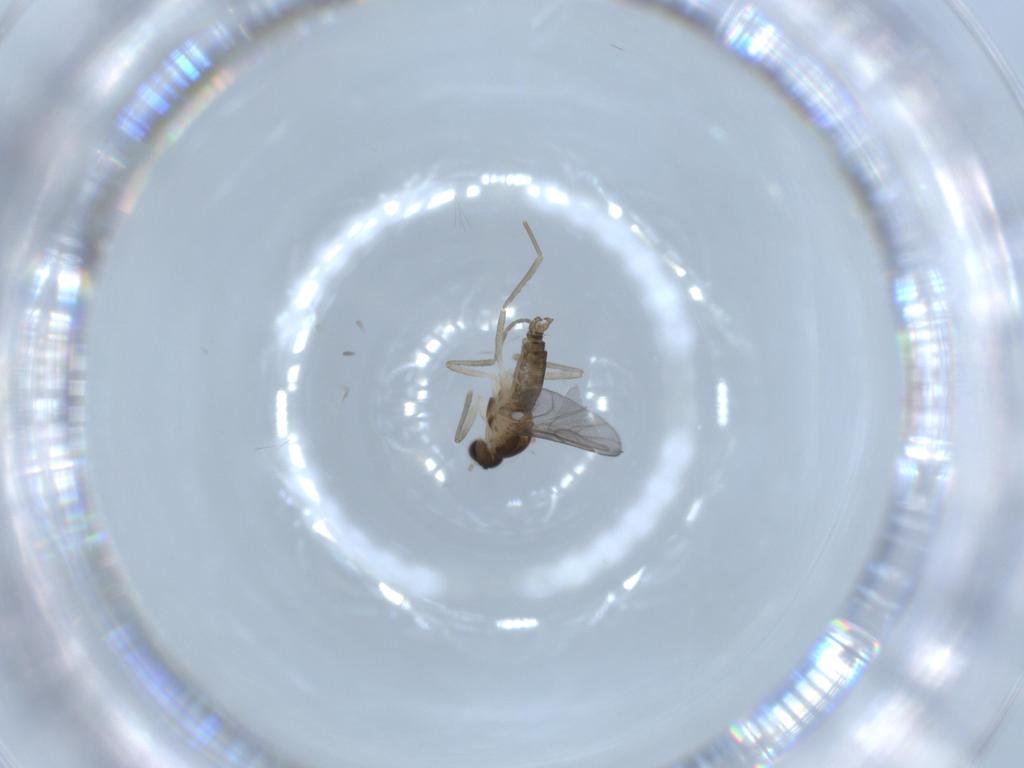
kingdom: Animalia
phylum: Arthropoda
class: Insecta
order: Diptera
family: Cecidomyiidae
